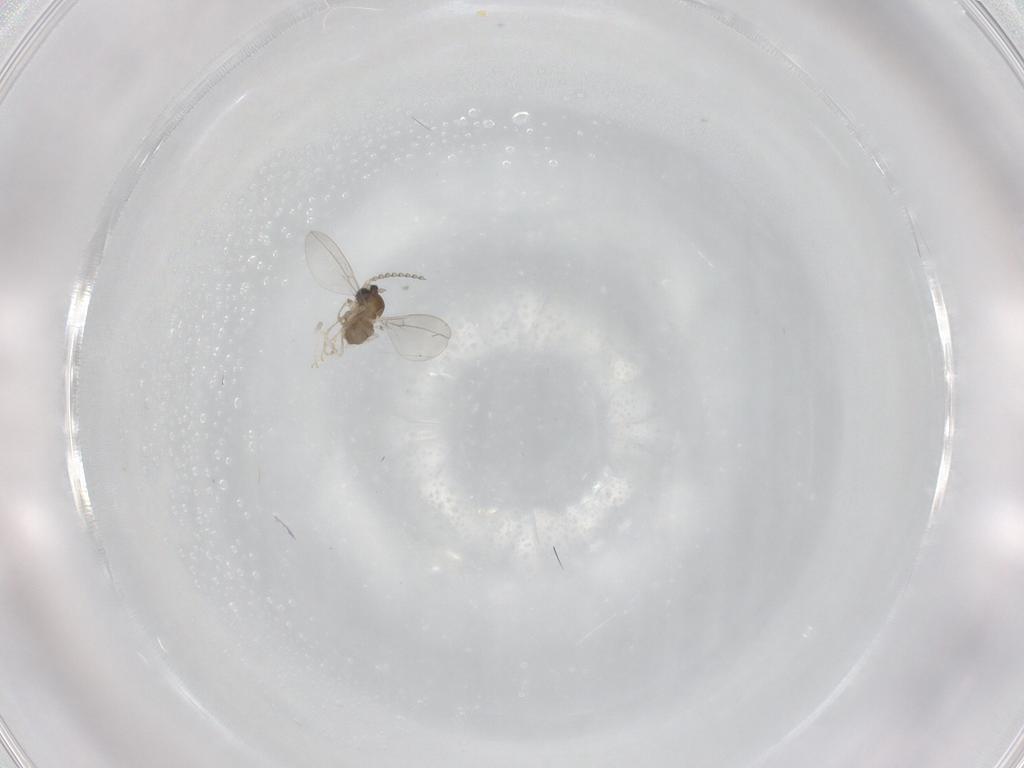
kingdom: Animalia
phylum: Arthropoda
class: Insecta
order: Diptera
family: Cecidomyiidae
